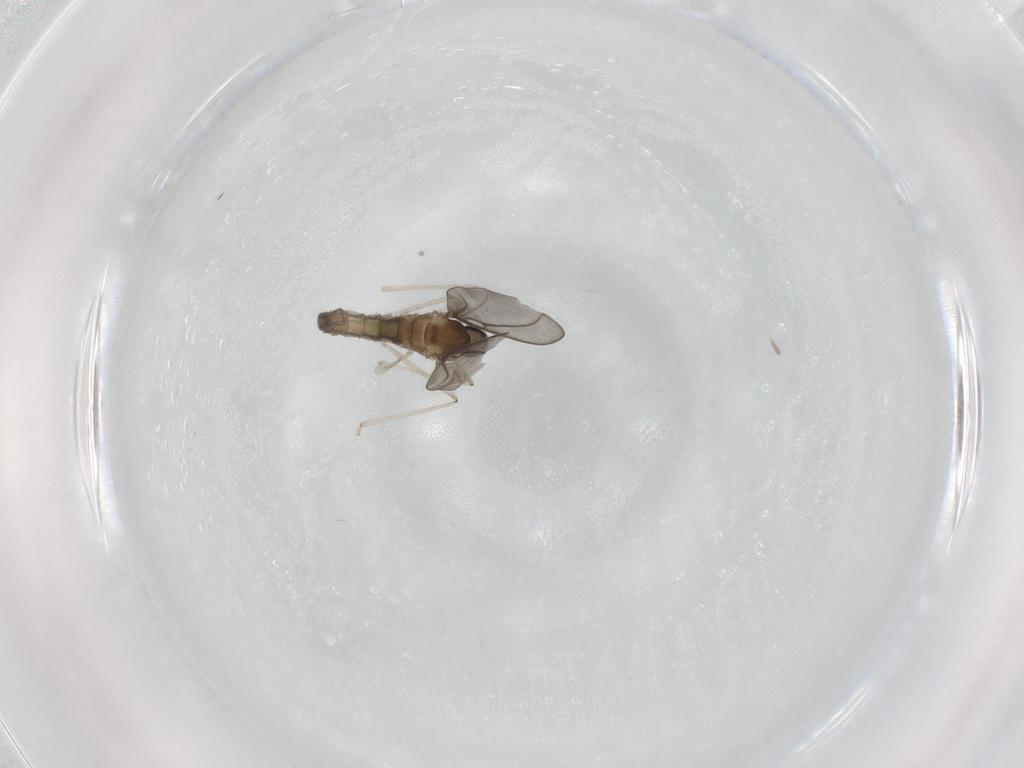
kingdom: Animalia
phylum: Arthropoda
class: Insecta
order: Diptera
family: Cecidomyiidae
